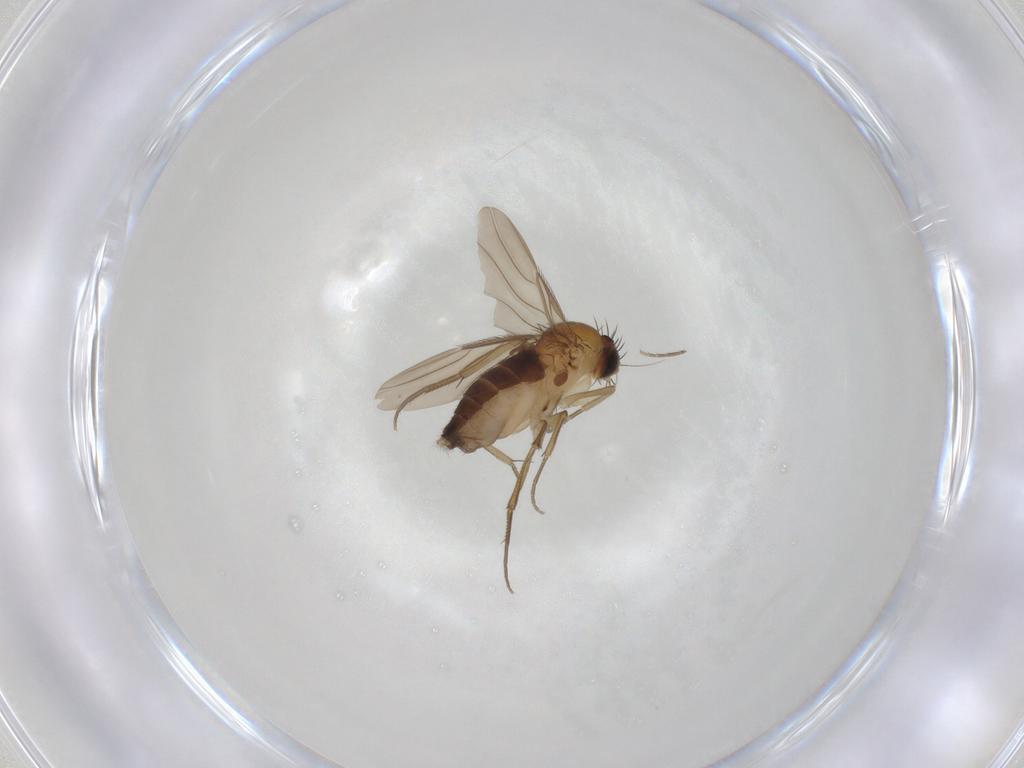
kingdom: Animalia
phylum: Arthropoda
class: Insecta
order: Diptera
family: Phoridae
